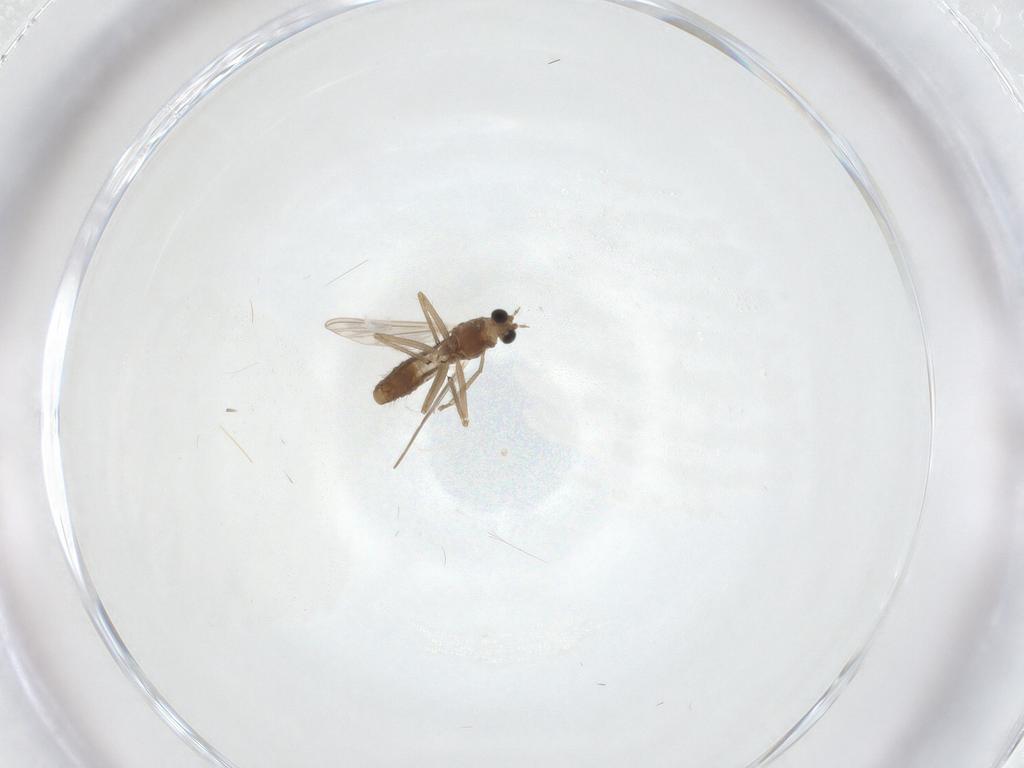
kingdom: Animalia
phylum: Arthropoda
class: Insecta
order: Diptera
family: Chironomidae
